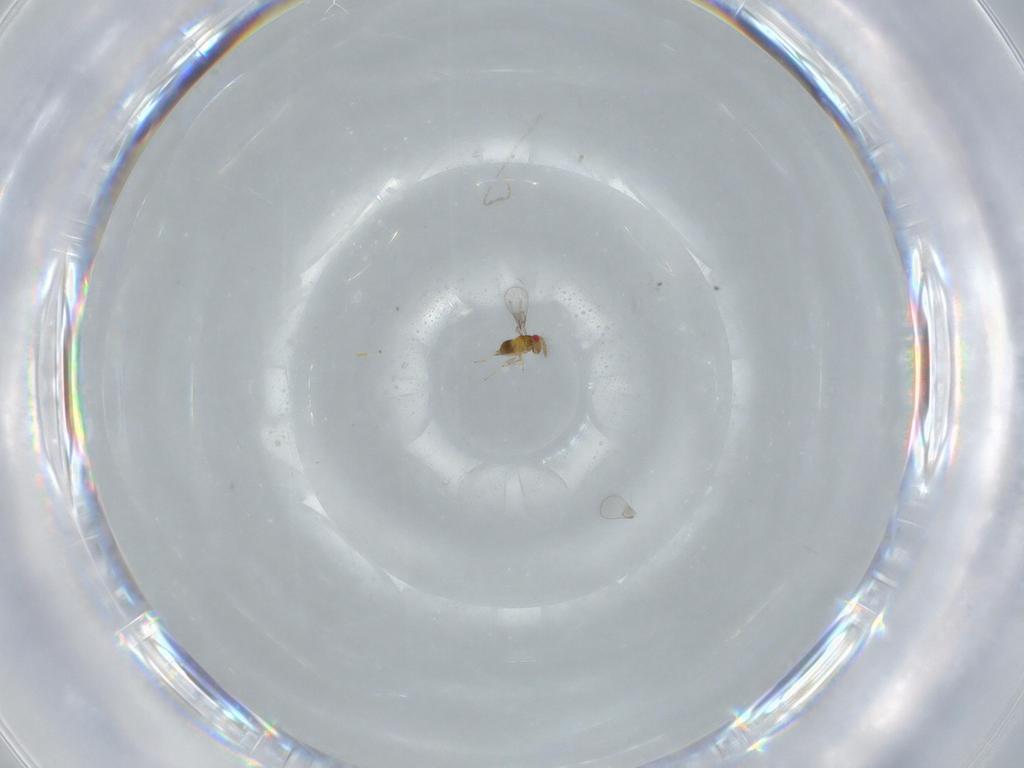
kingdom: Animalia
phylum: Arthropoda
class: Insecta
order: Hymenoptera
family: Trichogrammatidae
